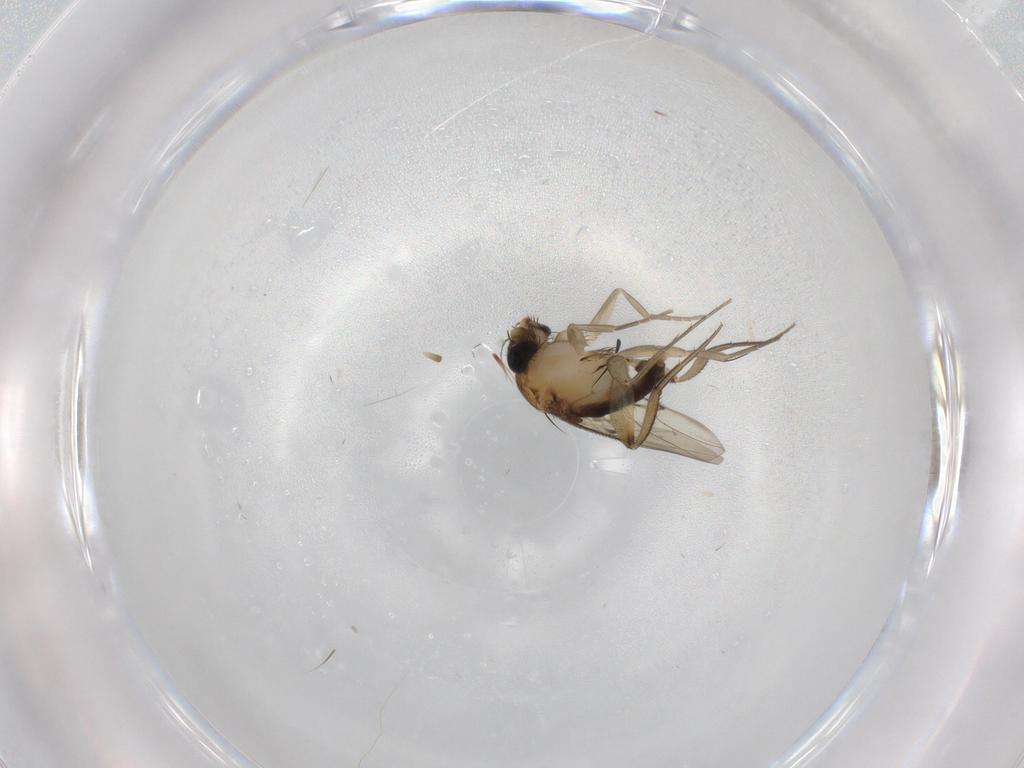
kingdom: Animalia
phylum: Arthropoda
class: Insecta
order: Diptera
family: Phoridae
